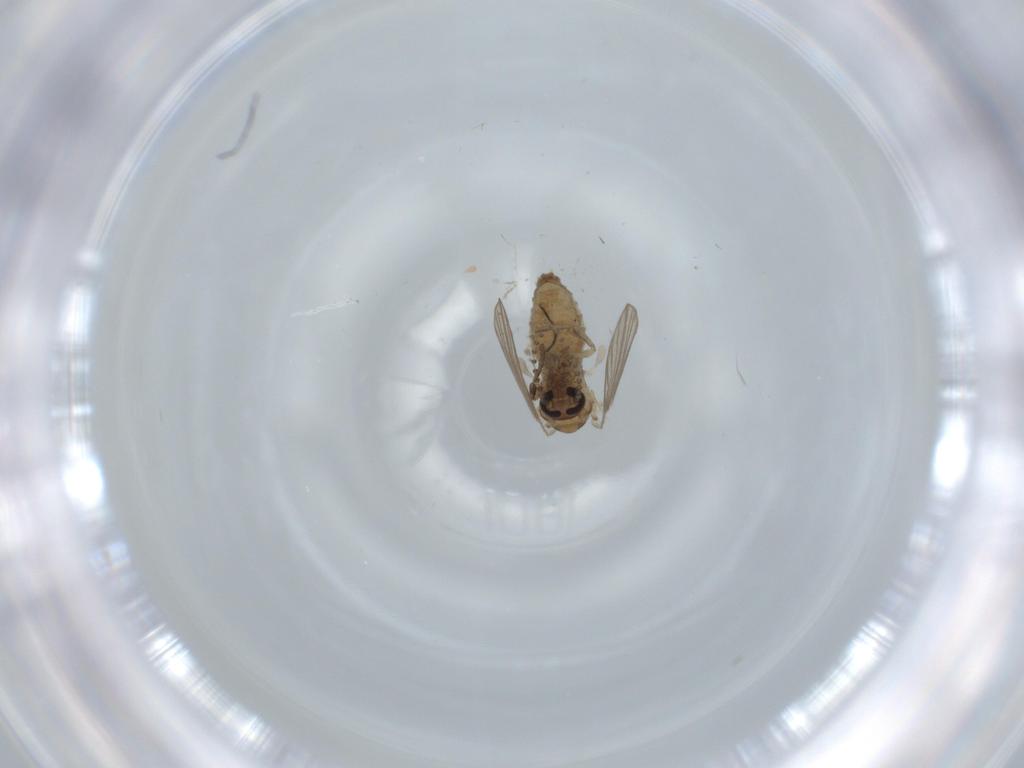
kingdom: Animalia
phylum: Arthropoda
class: Insecta
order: Diptera
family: Psychodidae
